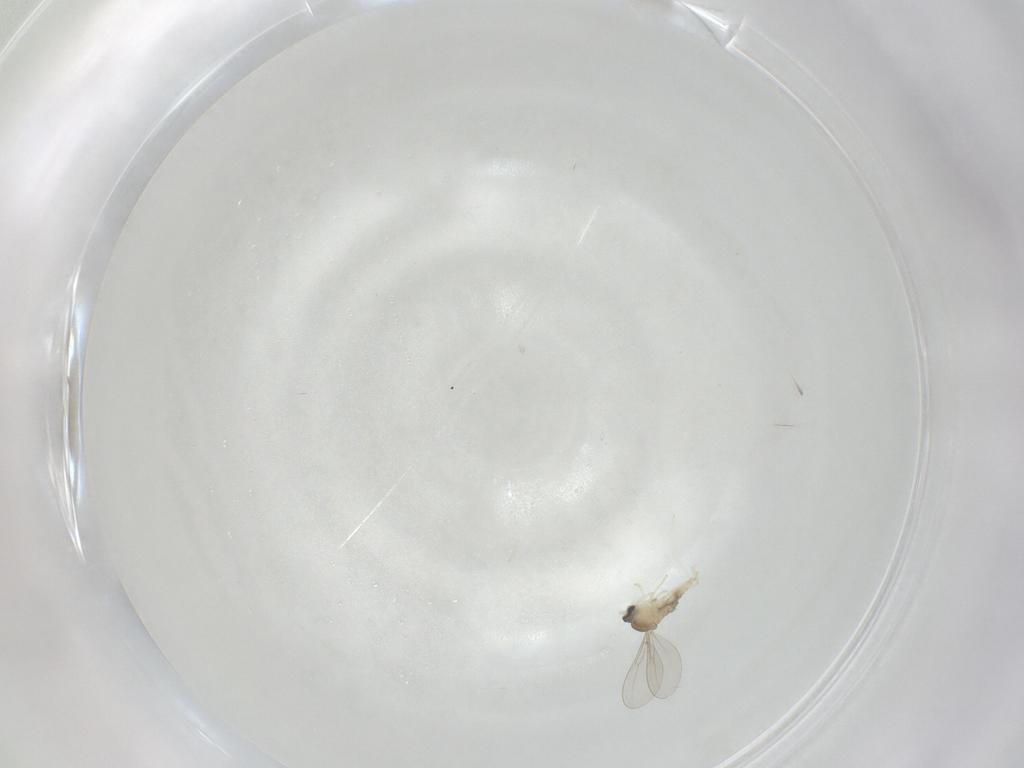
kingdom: Animalia
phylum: Arthropoda
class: Insecta
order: Diptera
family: Cecidomyiidae
